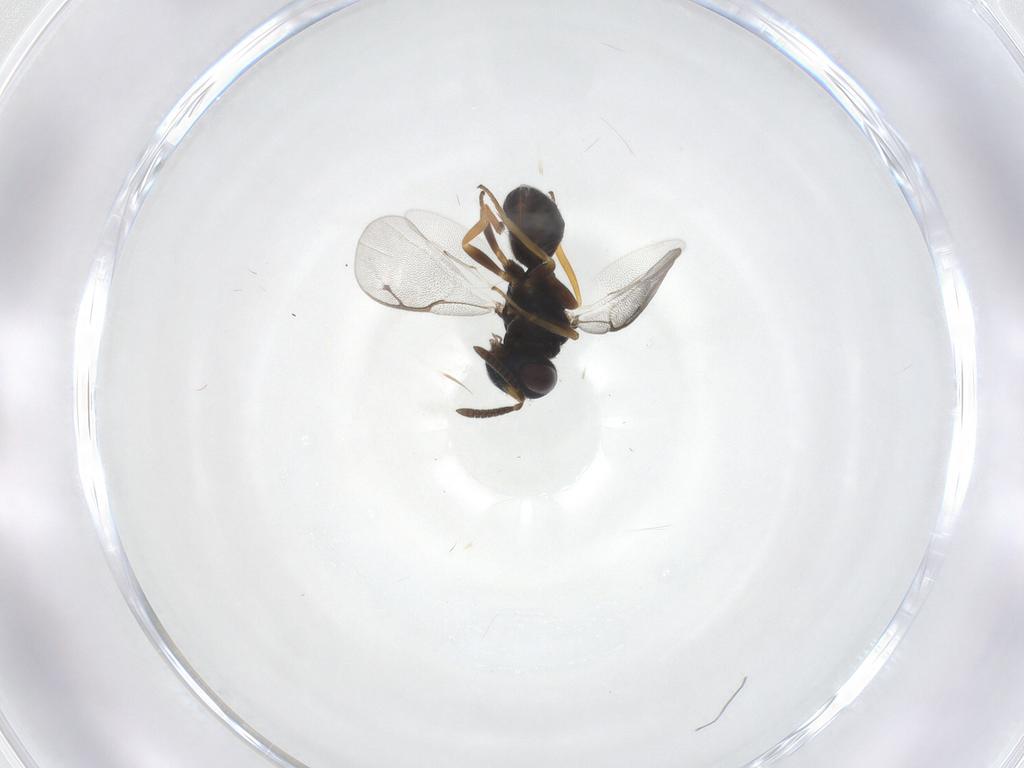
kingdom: Animalia
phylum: Arthropoda
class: Insecta
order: Hymenoptera
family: Pteromalidae
